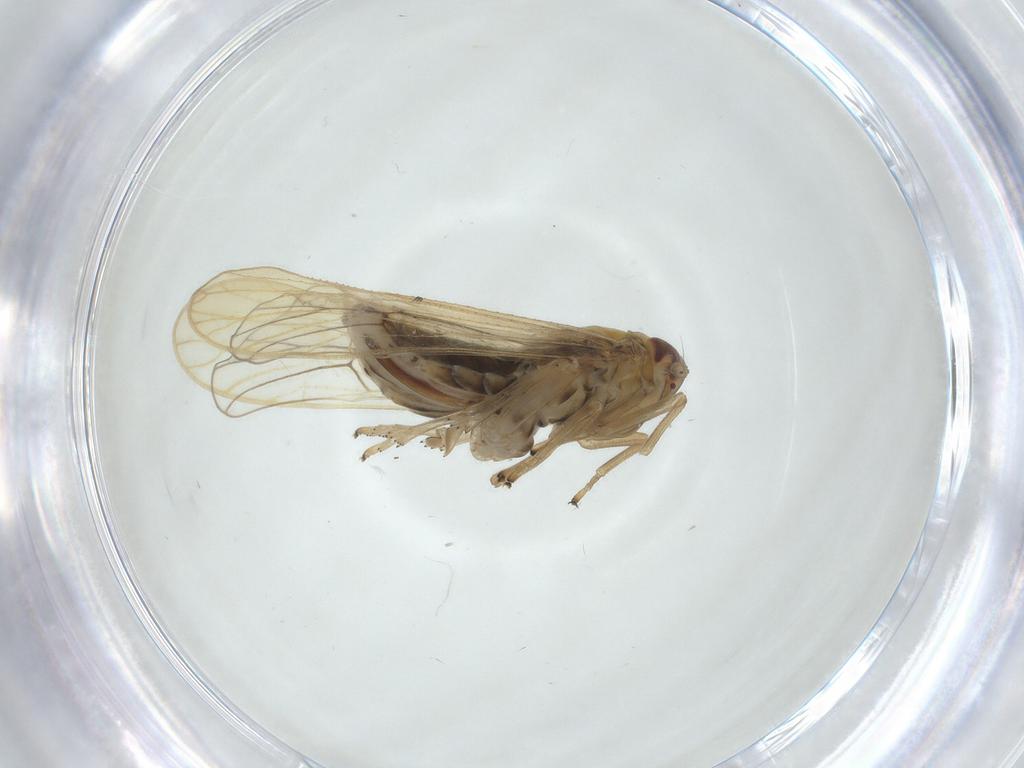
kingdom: Animalia
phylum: Arthropoda
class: Insecta
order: Hemiptera
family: Delphacidae
